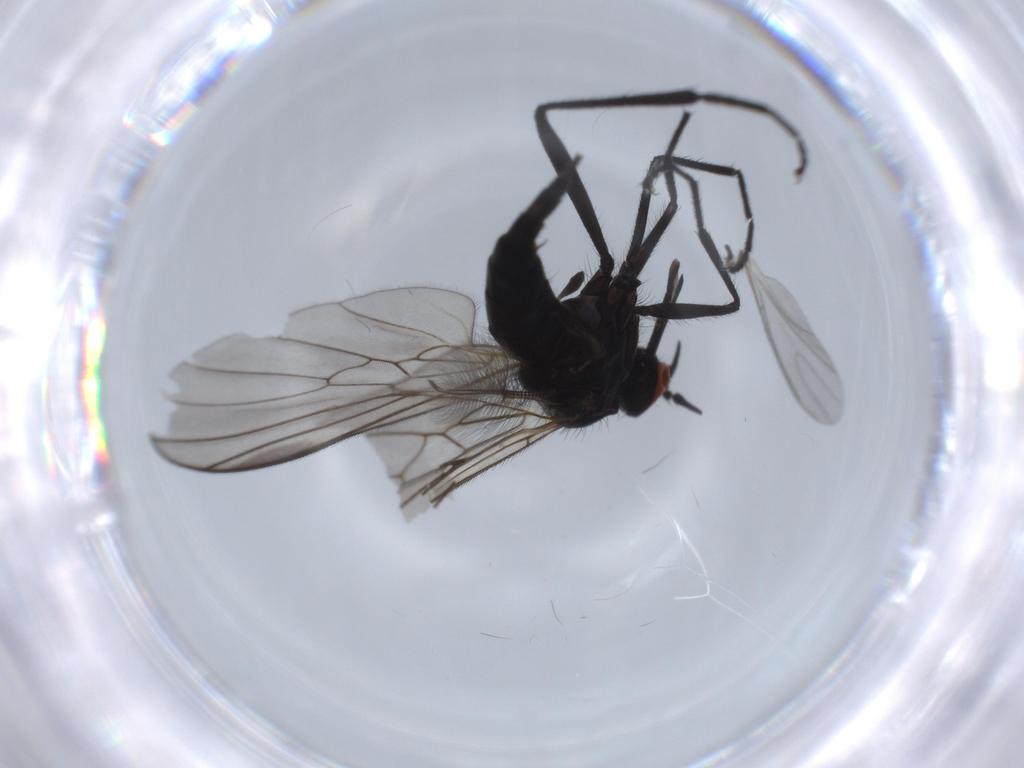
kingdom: Animalia
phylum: Arthropoda
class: Insecta
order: Diptera
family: Empididae
